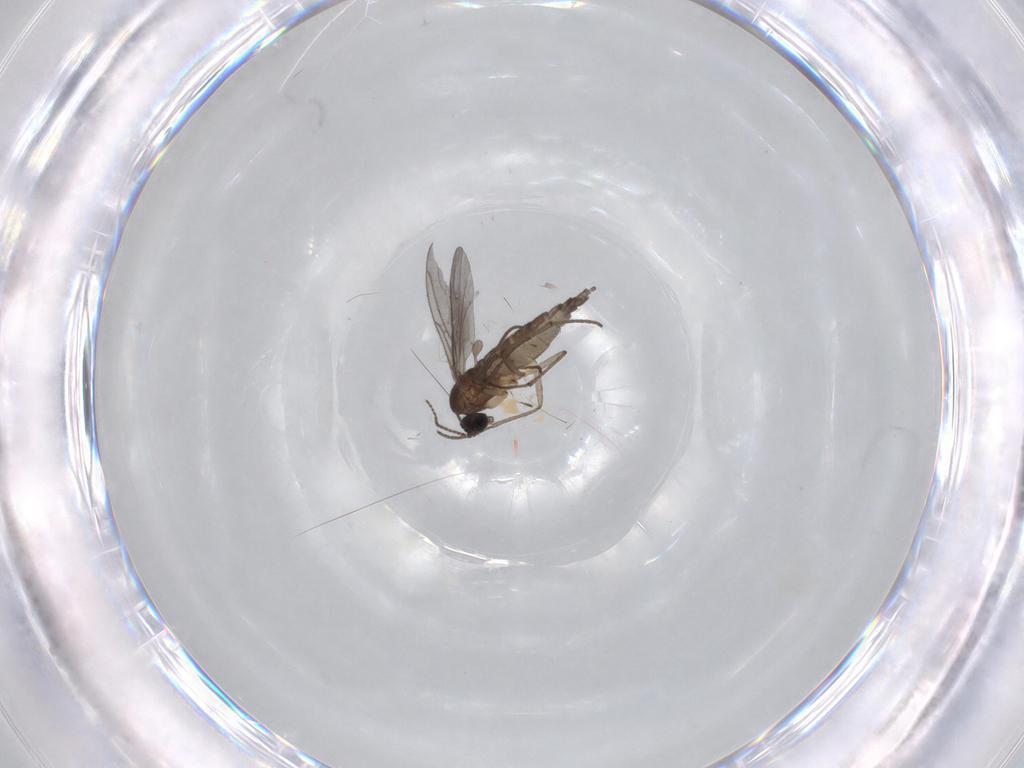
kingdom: Animalia
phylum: Arthropoda
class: Insecta
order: Diptera
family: Sciaridae
